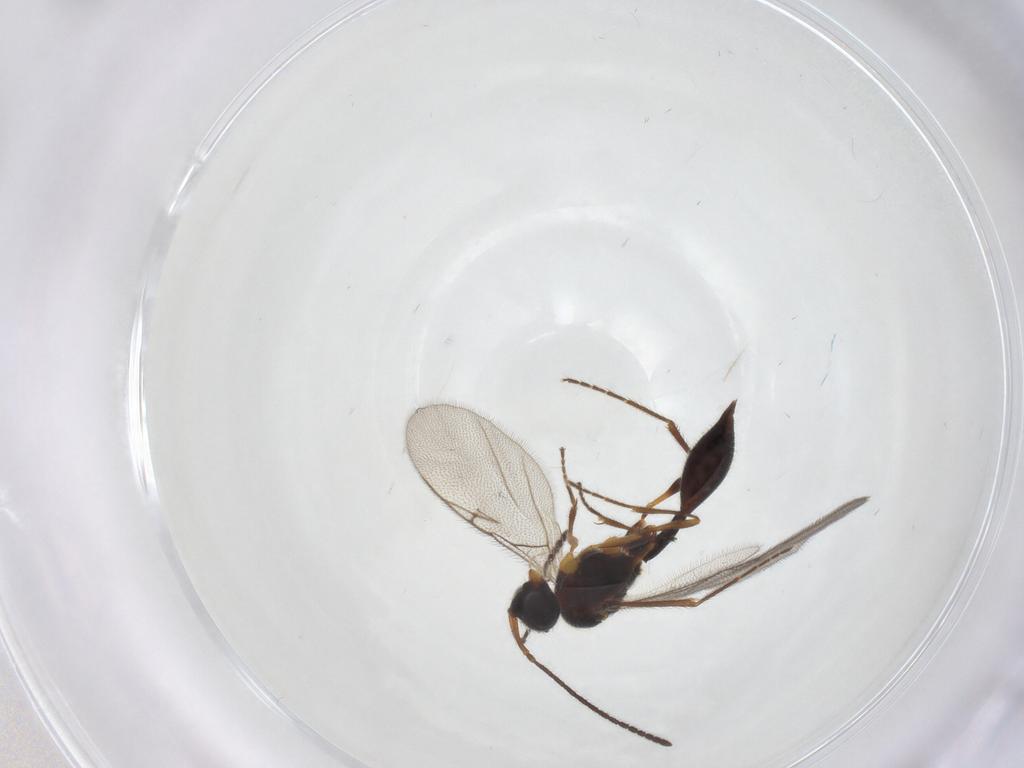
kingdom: Animalia
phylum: Arthropoda
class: Insecta
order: Hymenoptera
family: Diapriidae
